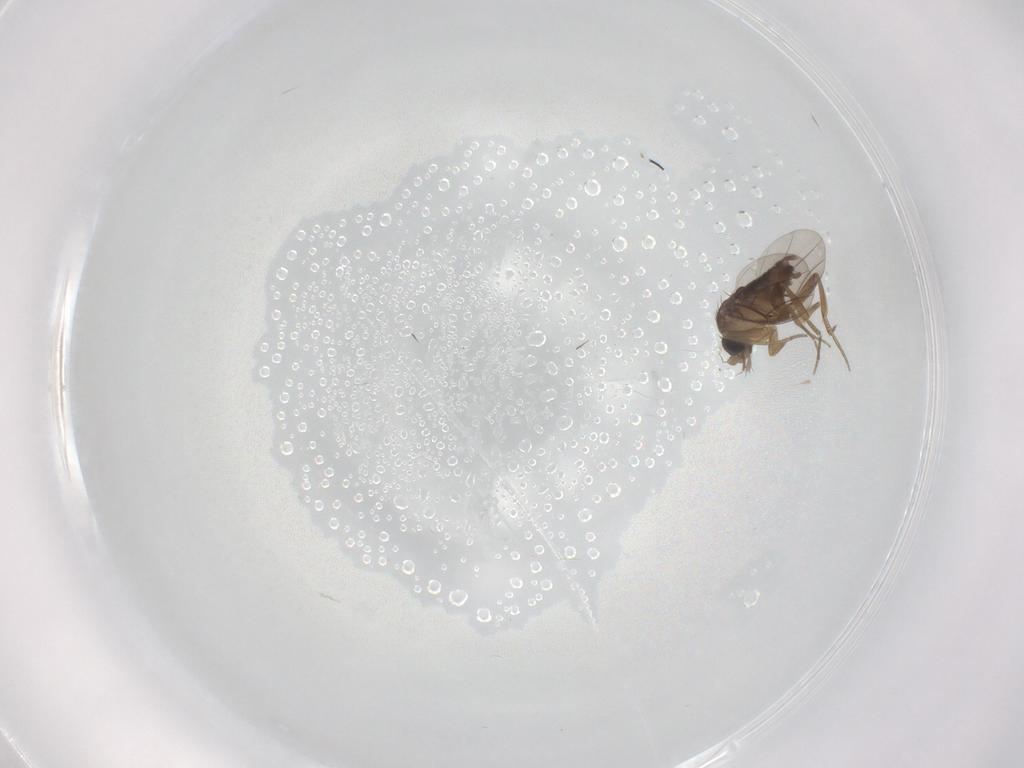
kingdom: Animalia
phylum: Arthropoda
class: Insecta
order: Diptera
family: Phoridae
